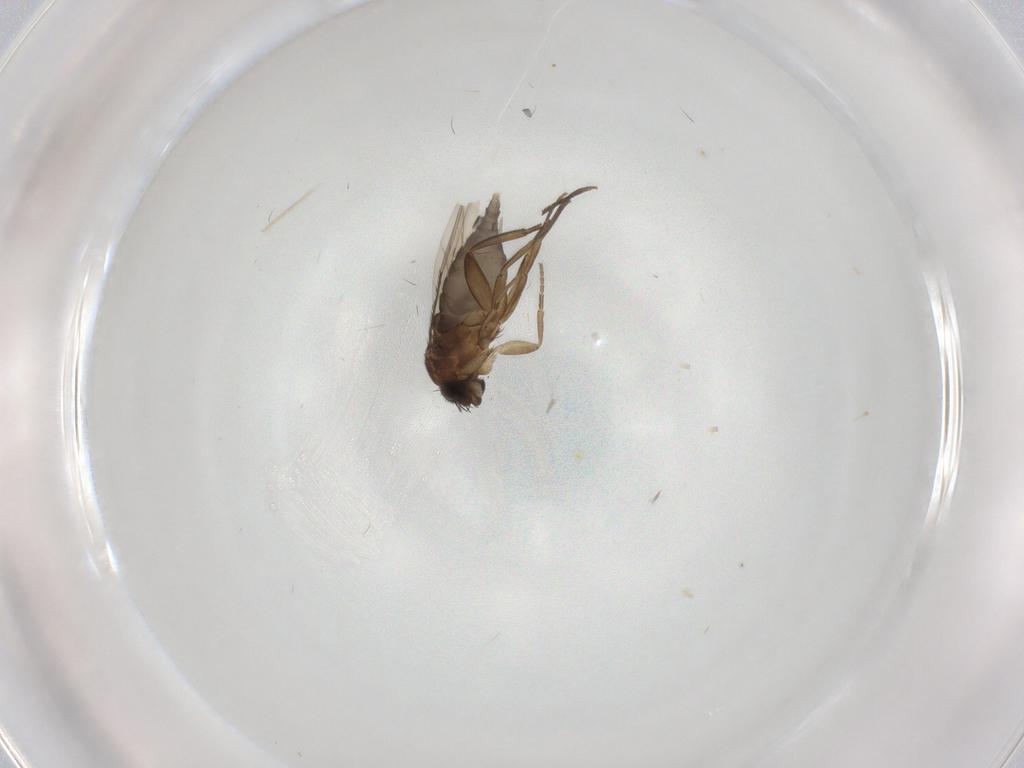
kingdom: Animalia
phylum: Arthropoda
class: Insecta
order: Diptera
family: Phoridae
